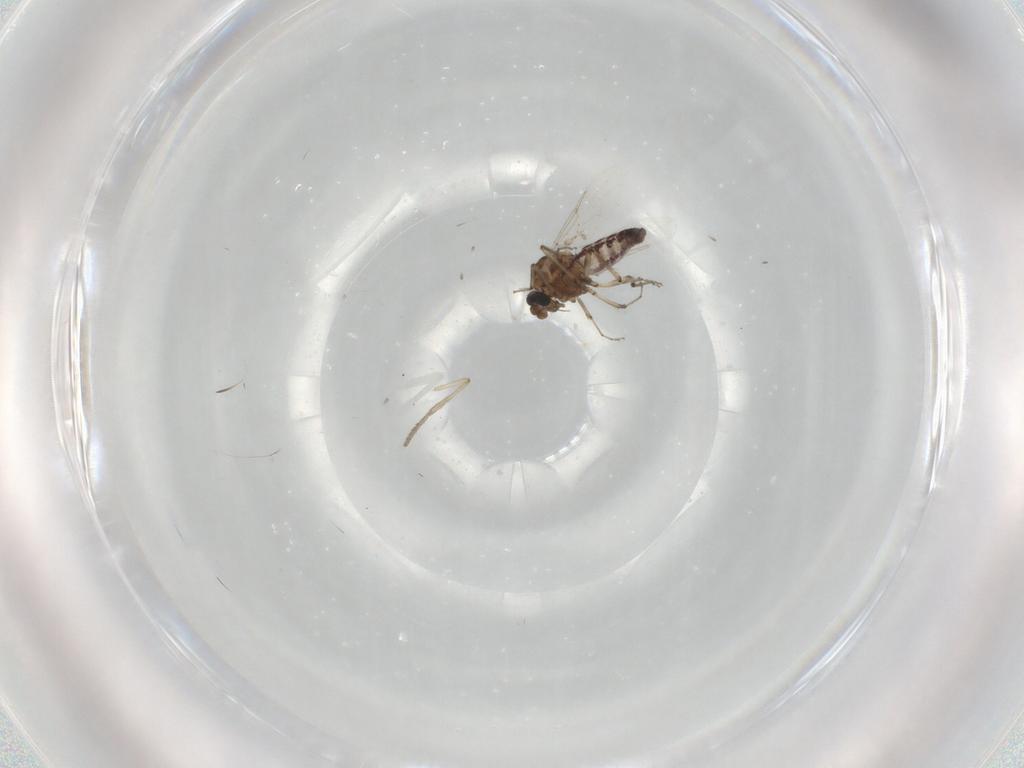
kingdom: Animalia
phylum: Arthropoda
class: Insecta
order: Diptera
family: Ceratopogonidae
